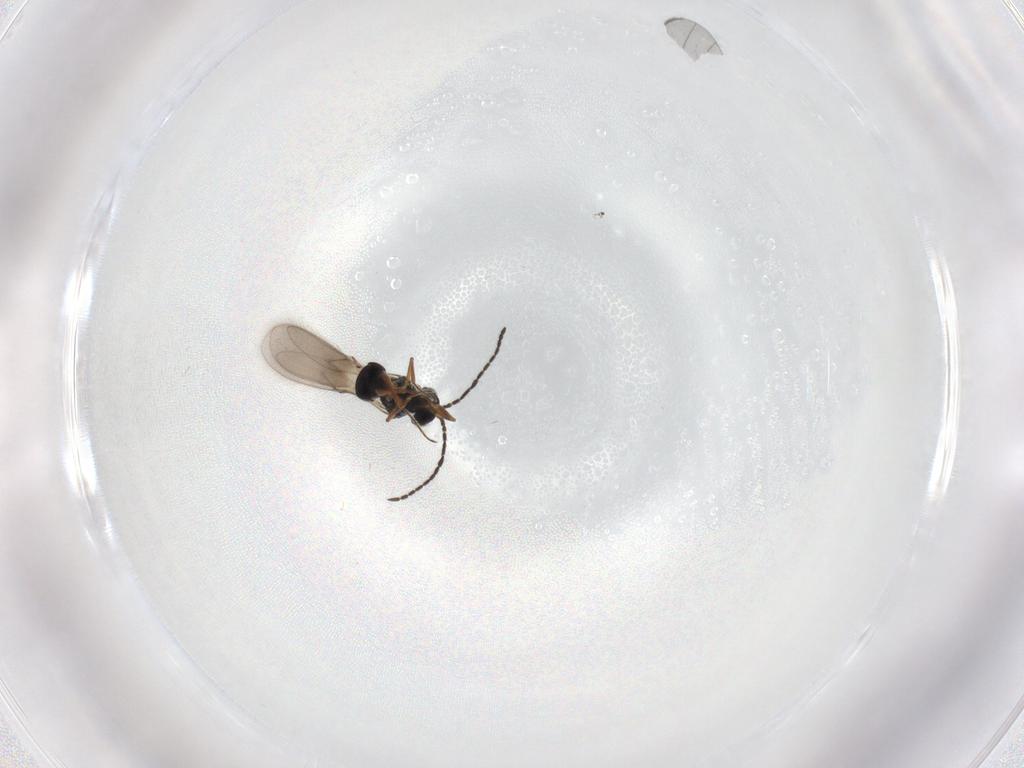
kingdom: Animalia
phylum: Arthropoda
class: Insecta
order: Hymenoptera
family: Scelionidae
